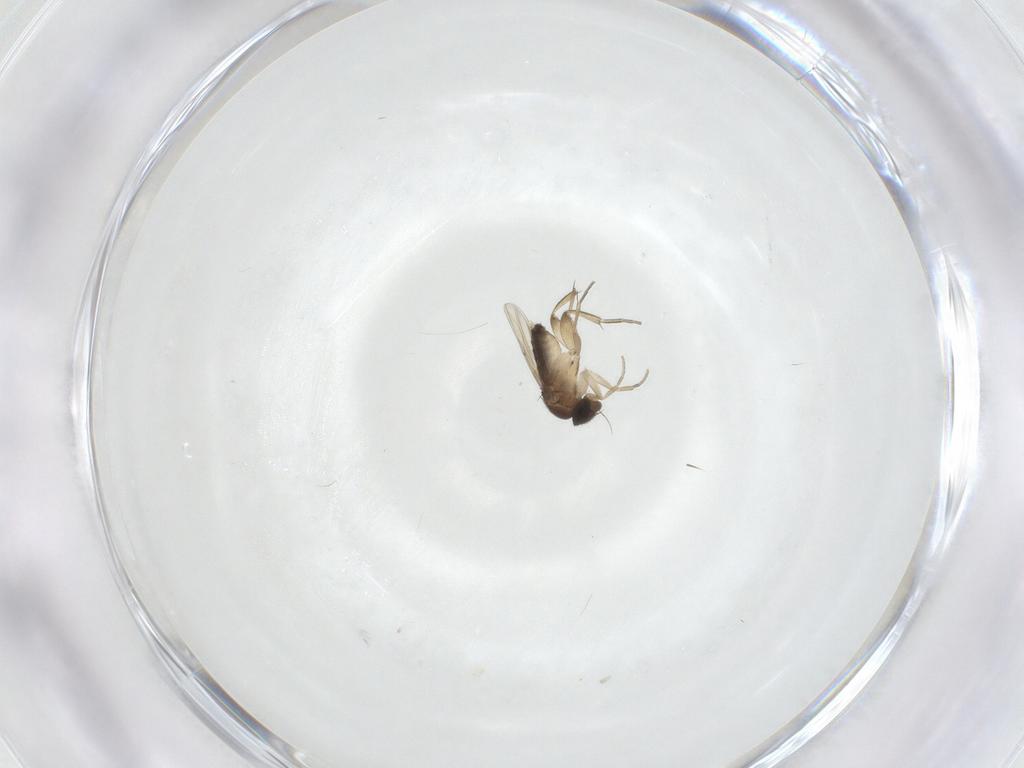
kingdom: Animalia
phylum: Arthropoda
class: Insecta
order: Diptera
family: Phoridae
